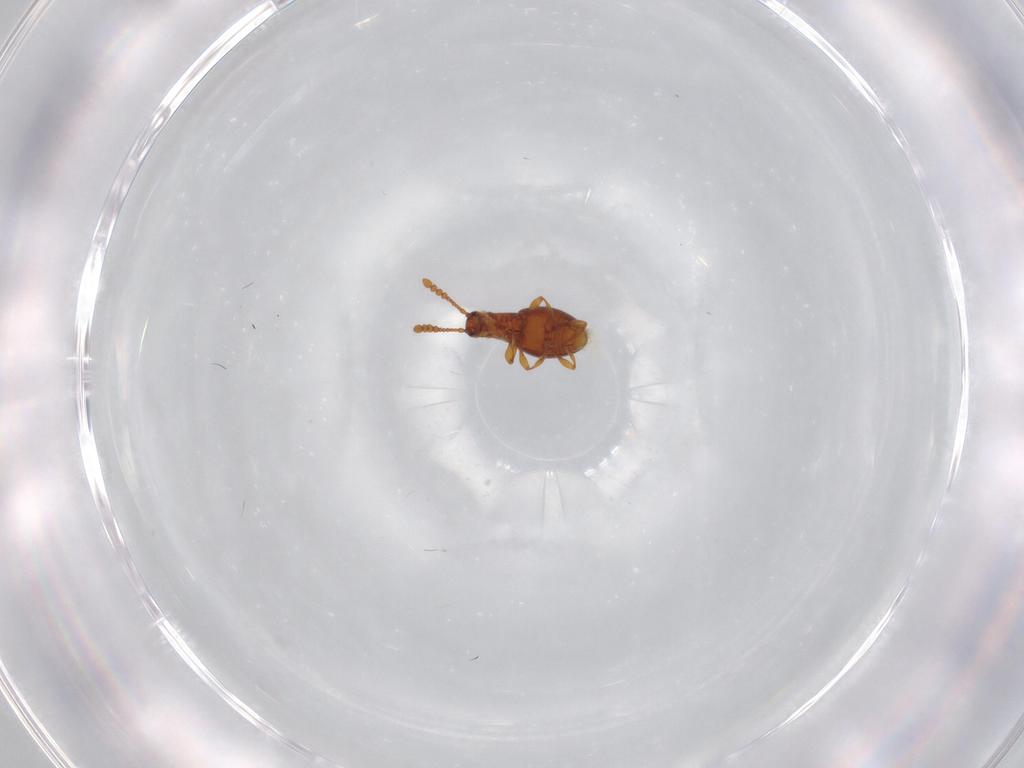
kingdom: Animalia
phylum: Arthropoda
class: Insecta
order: Coleoptera
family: Staphylinidae
